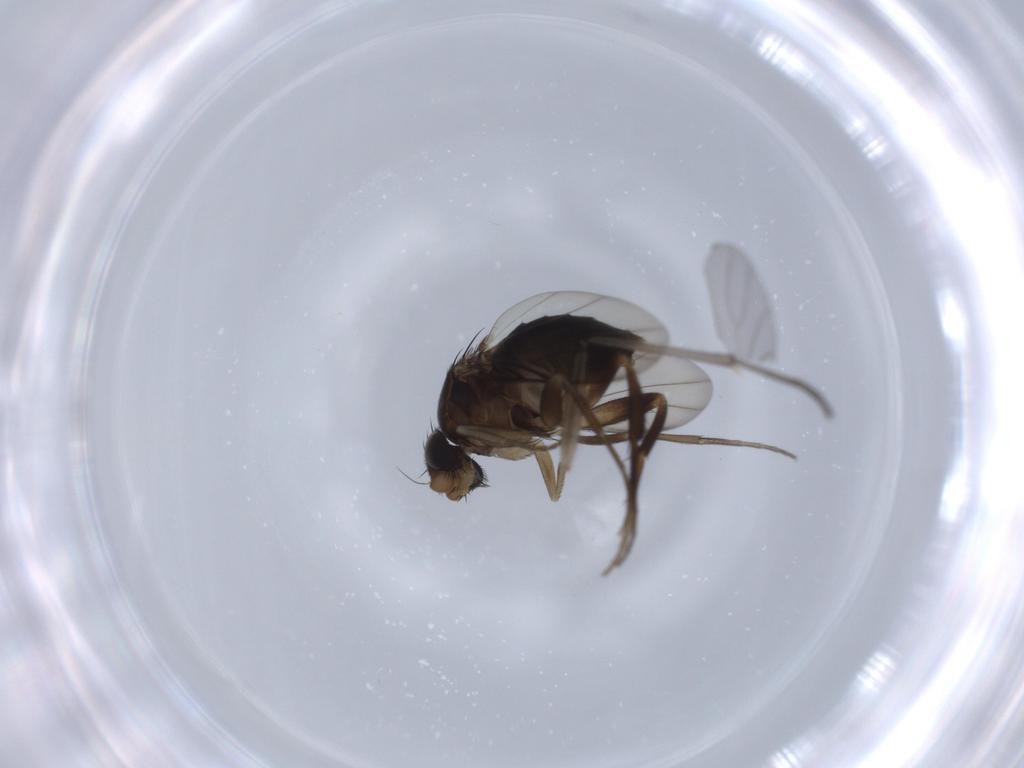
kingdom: Animalia
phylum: Arthropoda
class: Insecta
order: Diptera
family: Phoridae
